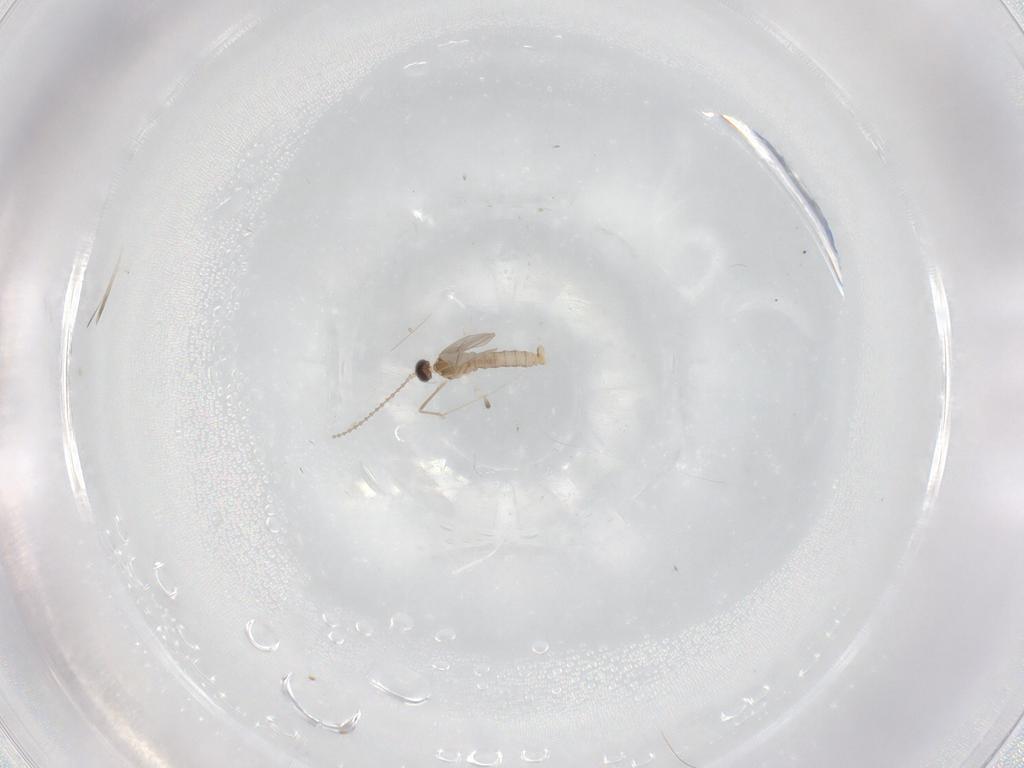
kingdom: Animalia
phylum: Arthropoda
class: Insecta
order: Diptera
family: Cecidomyiidae
